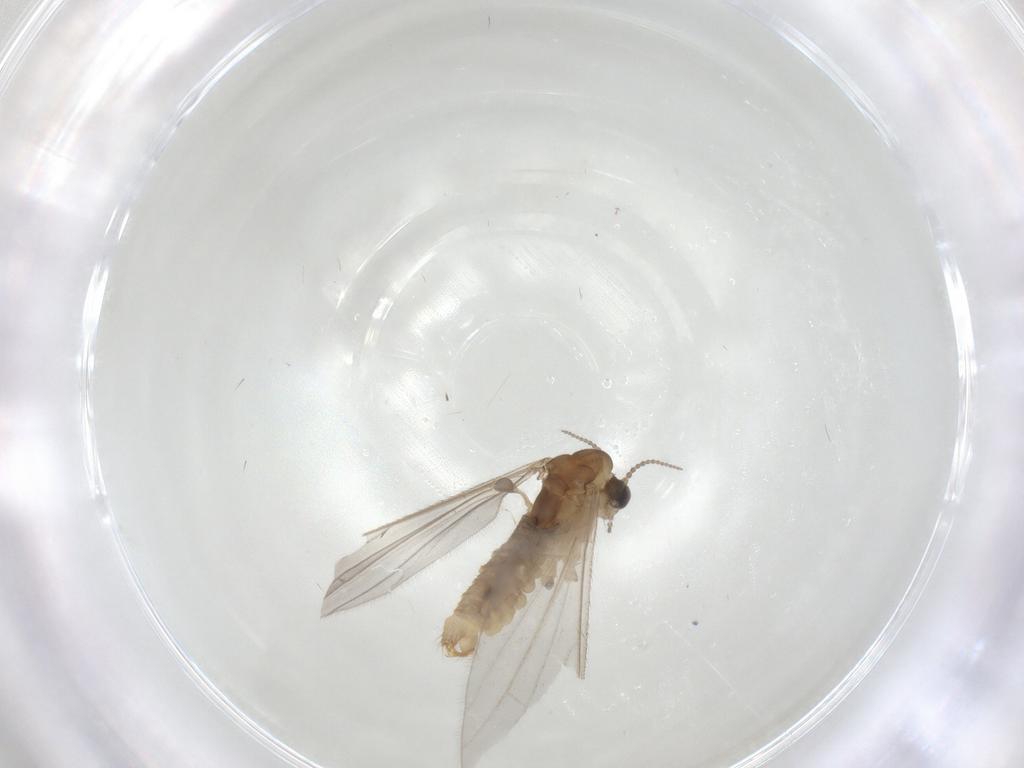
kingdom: Animalia
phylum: Arthropoda
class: Insecta
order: Diptera
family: Limoniidae
